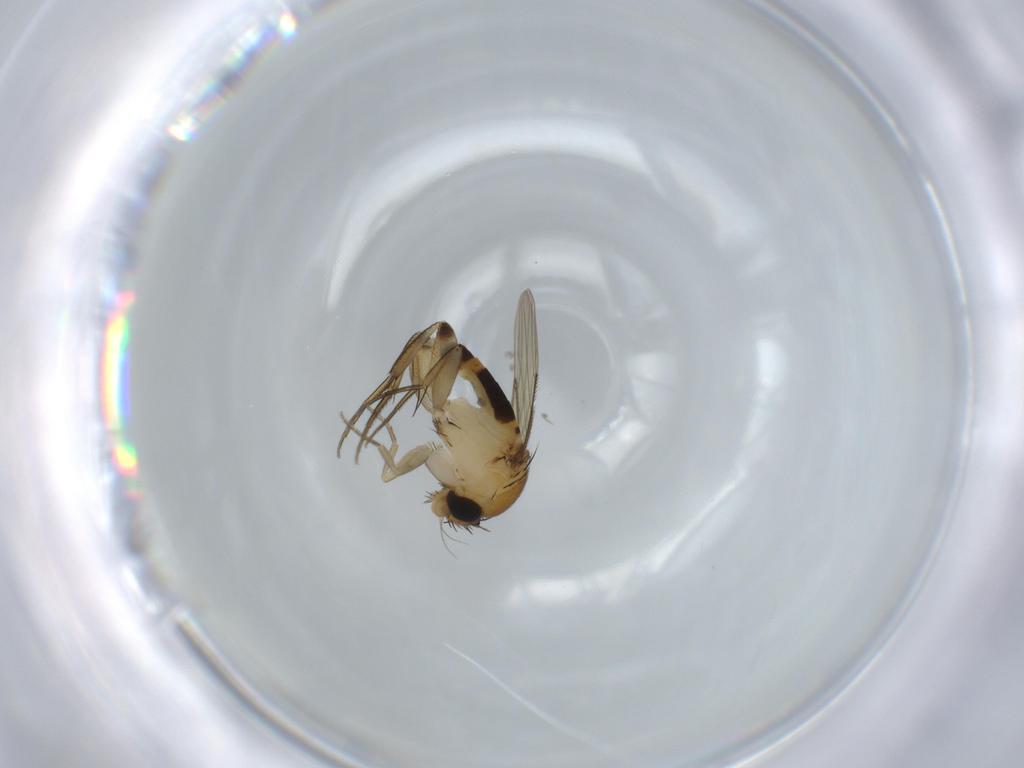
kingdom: Animalia
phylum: Arthropoda
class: Insecta
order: Diptera
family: Phoridae
